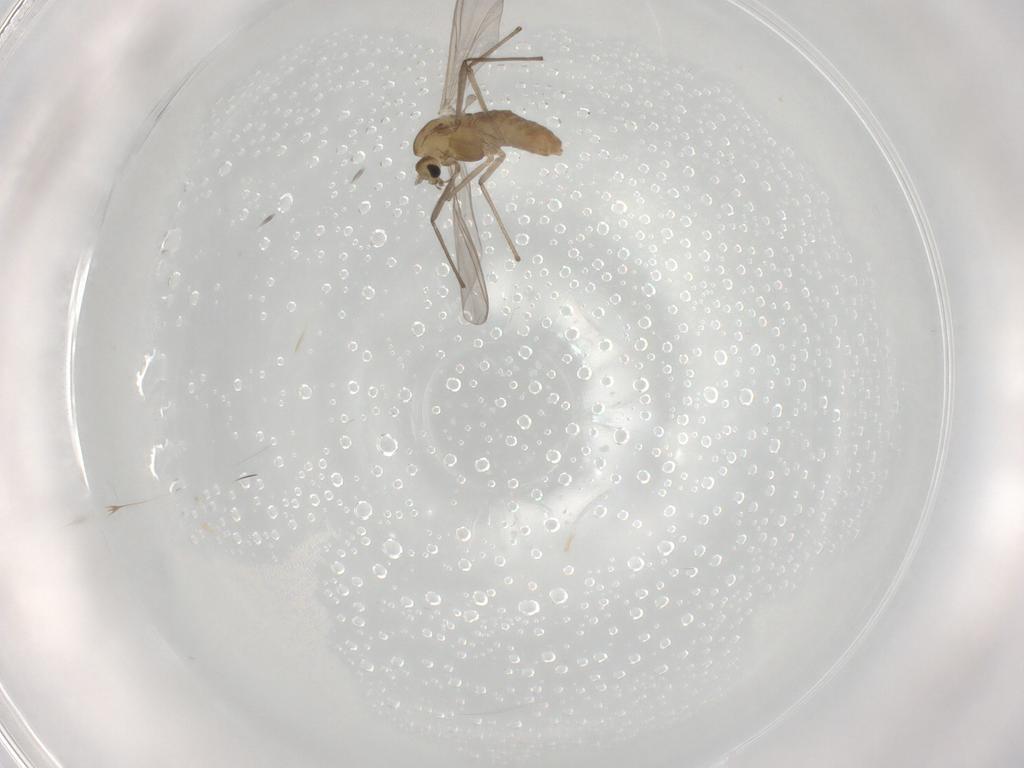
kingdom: Animalia
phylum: Arthropoda
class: Insecta
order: Diptera
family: Chironomidae
